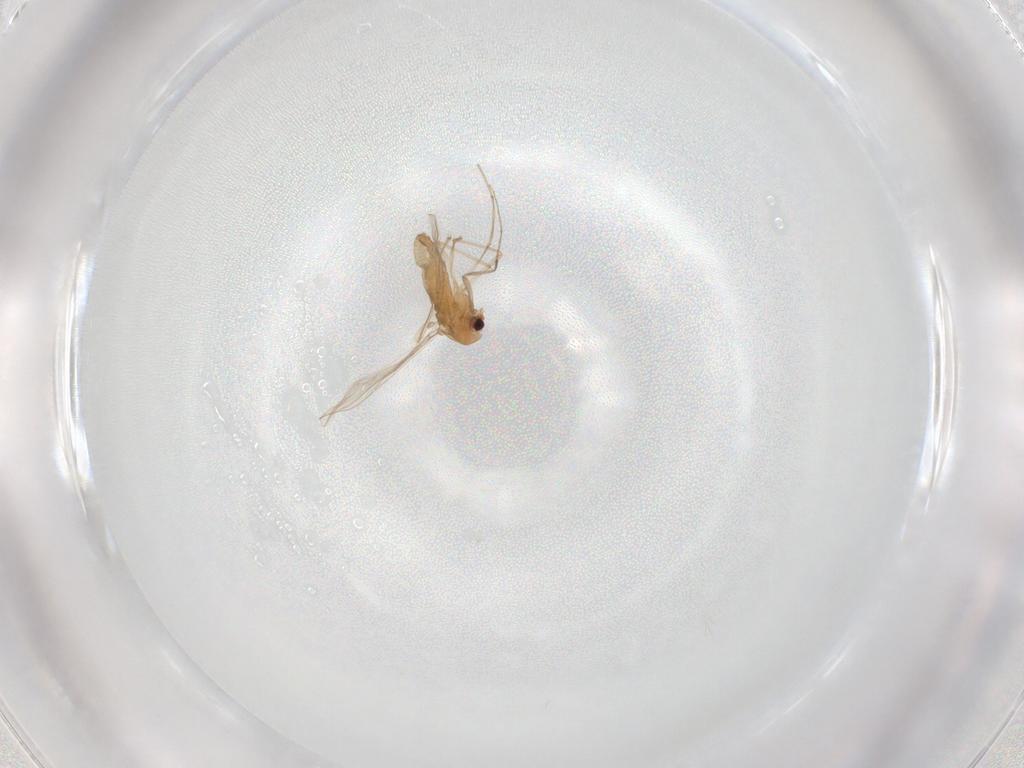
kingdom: Animalia
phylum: Arthropoda
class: Insecta
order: Diptera
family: Chironomidae
